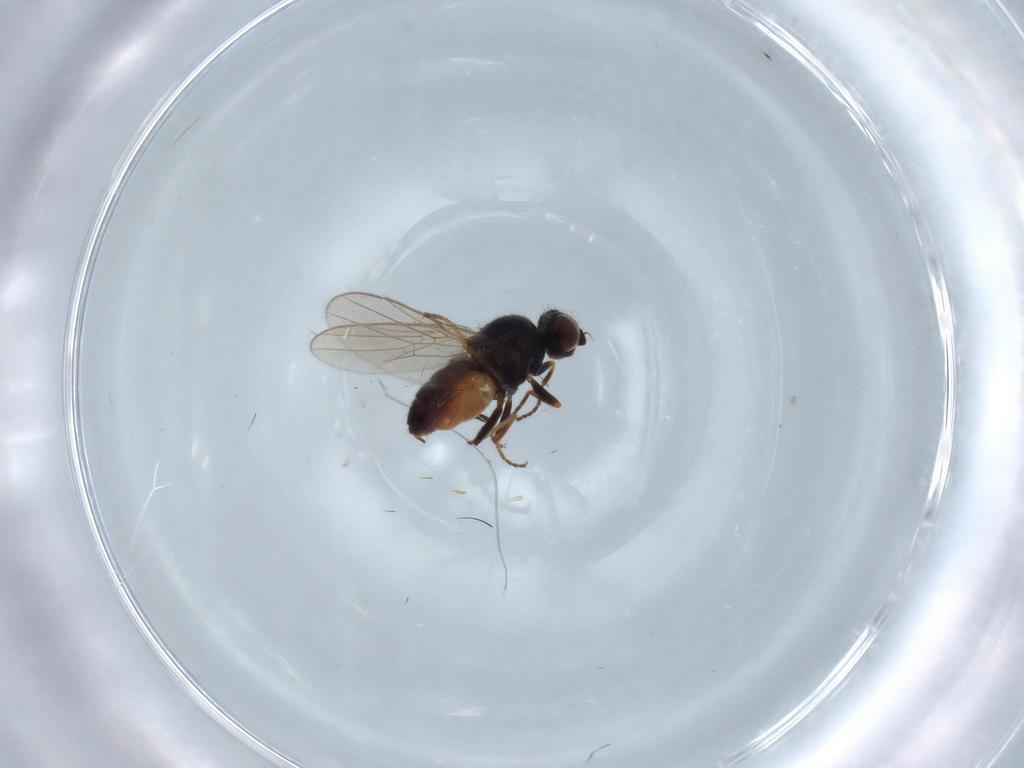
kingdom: Animalia
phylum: Arthropoda
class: Insecta
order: Diptera
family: Chloropidae
